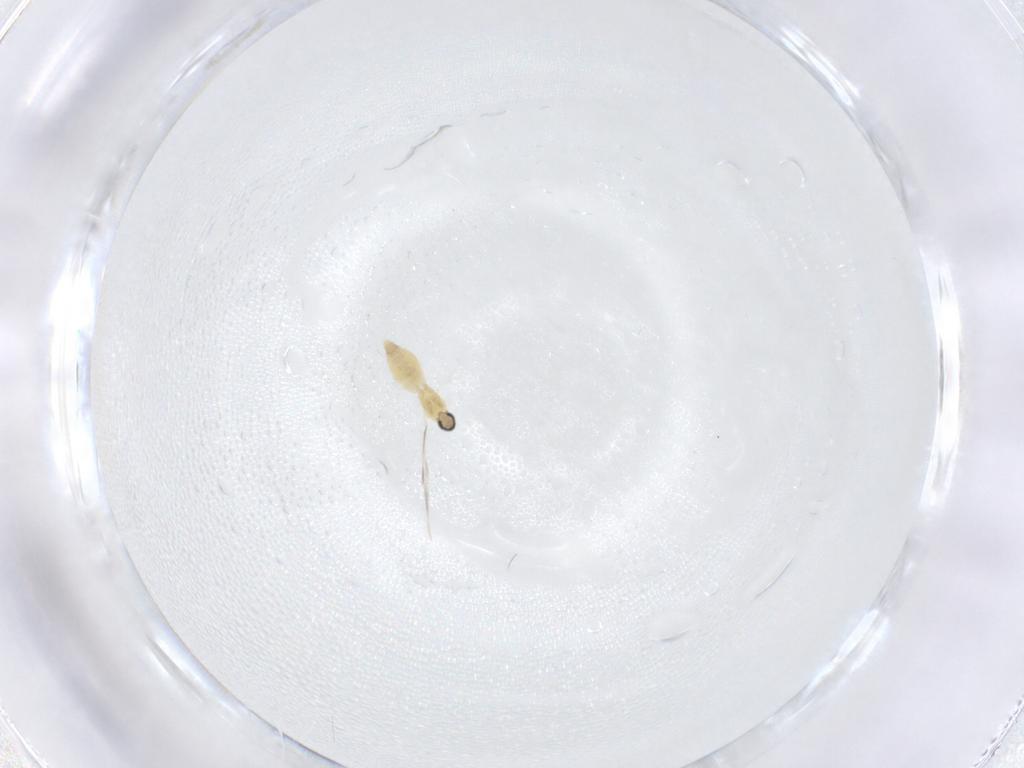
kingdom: Animalia
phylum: Arthropoda
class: Insecta
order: Diptera
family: Cecidomyiidae
